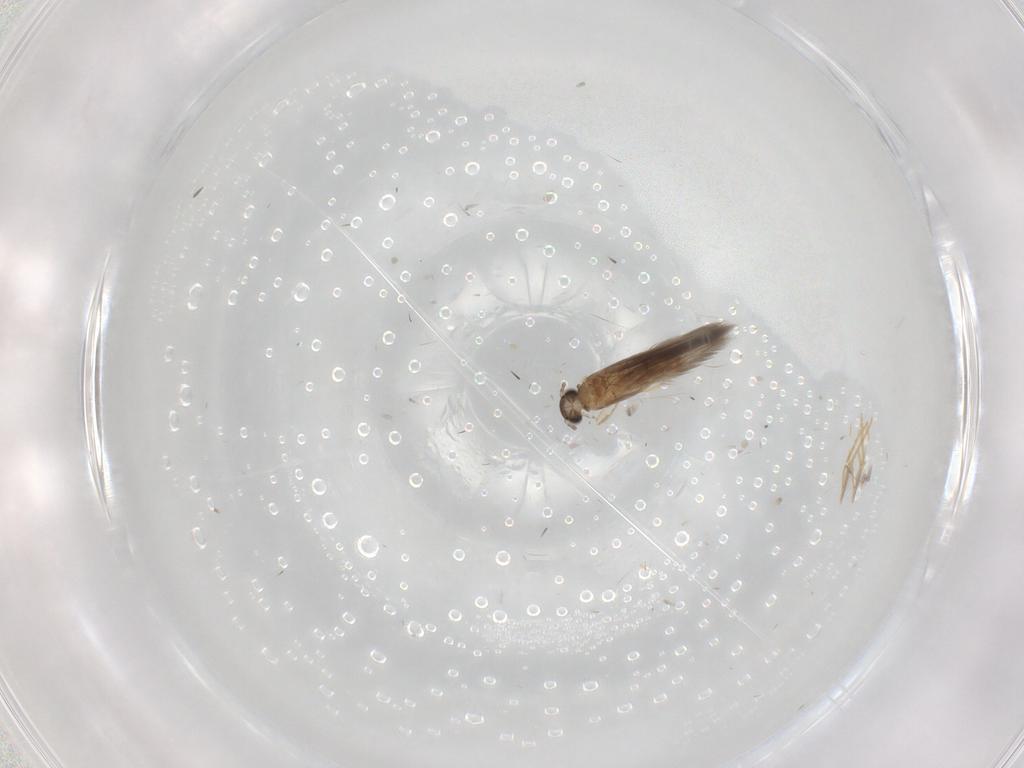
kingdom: Animalia
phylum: Arthropoda
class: Insecta
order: Trichoptera
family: Hydroptilidae
